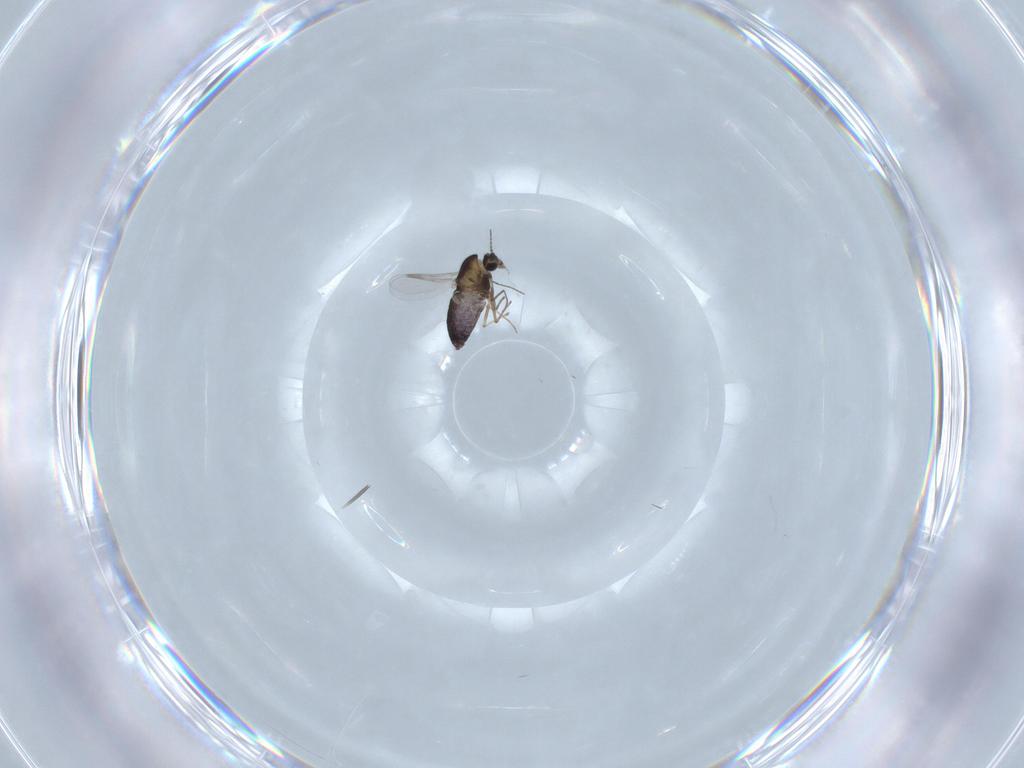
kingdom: Animalia
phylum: Arthropoda
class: Insecta
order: Diptera
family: Chironomidae
